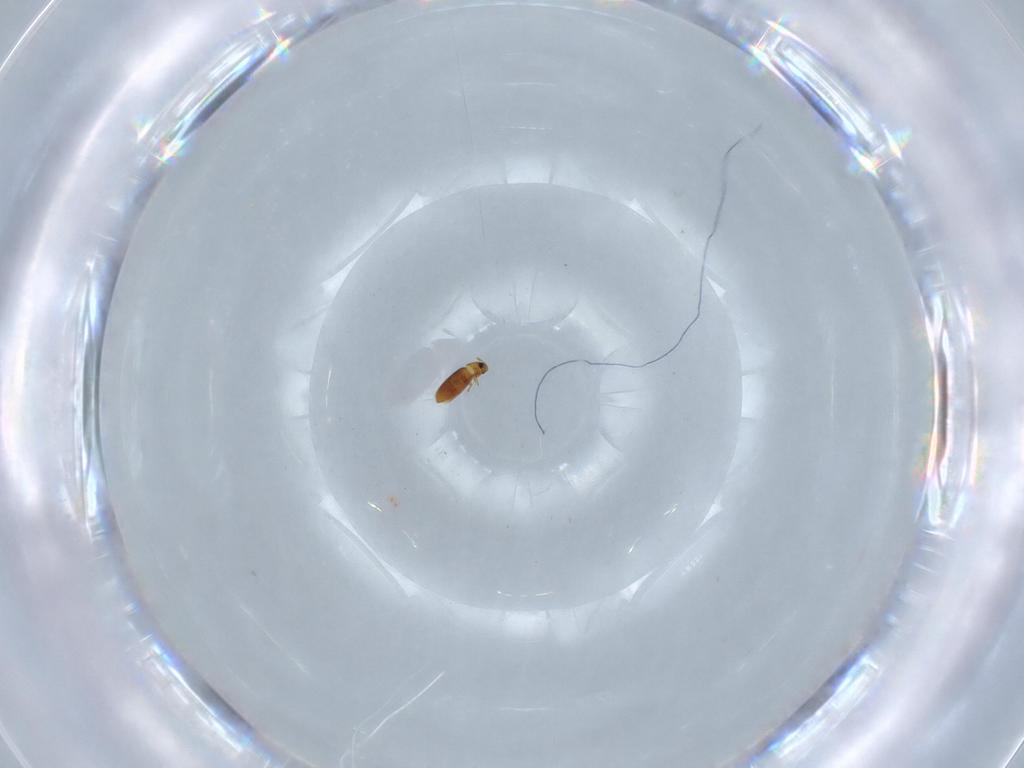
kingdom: Animalia
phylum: Arthropoda
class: Insecta
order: Coleoptera
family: Ptiliidae
